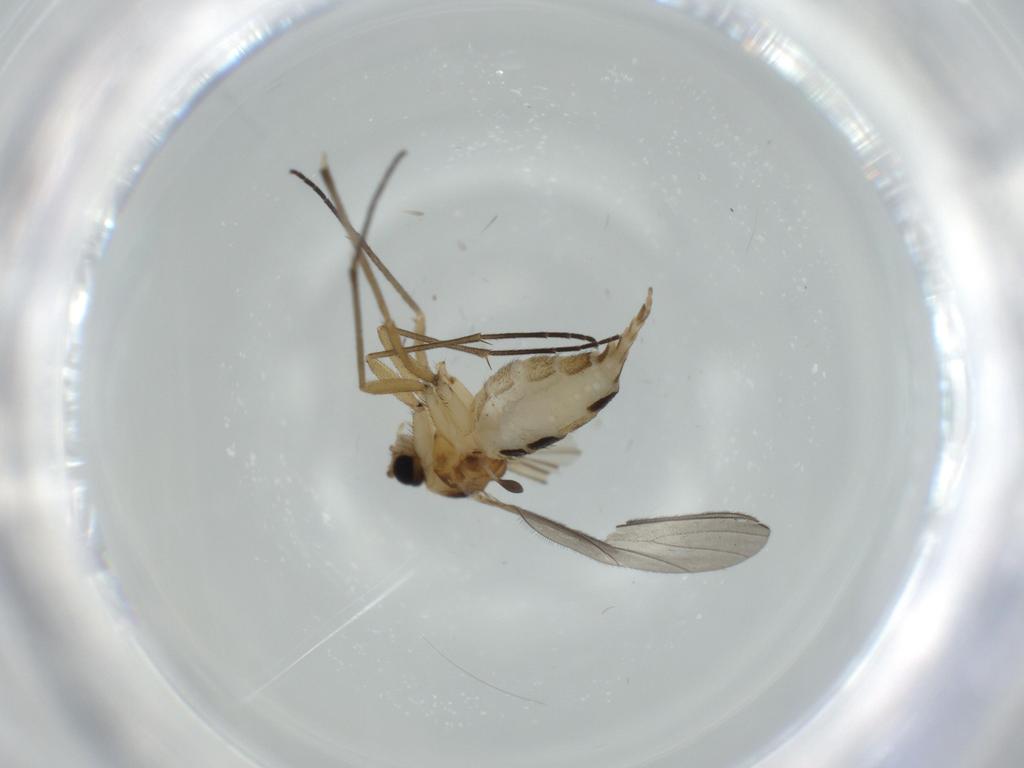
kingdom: Animalia
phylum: Arthropoda
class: Insecta
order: Diptera
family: Sciaridae
